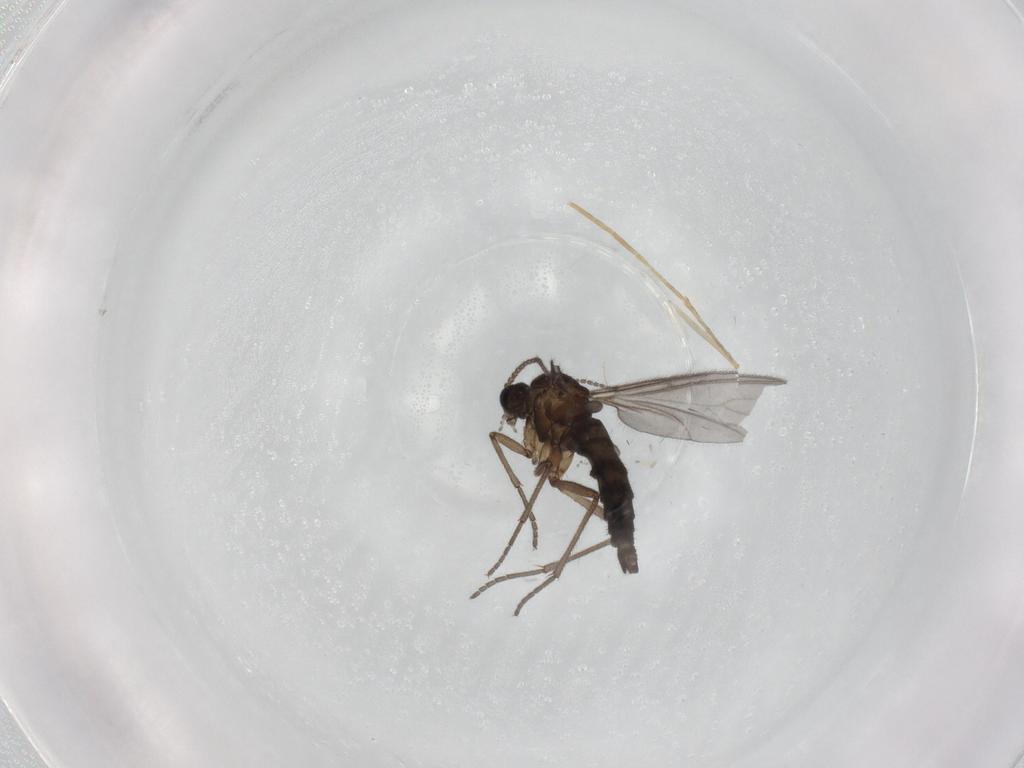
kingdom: Animalia
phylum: Arthropoda
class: Insecta
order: Diptera
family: Sciaridae
